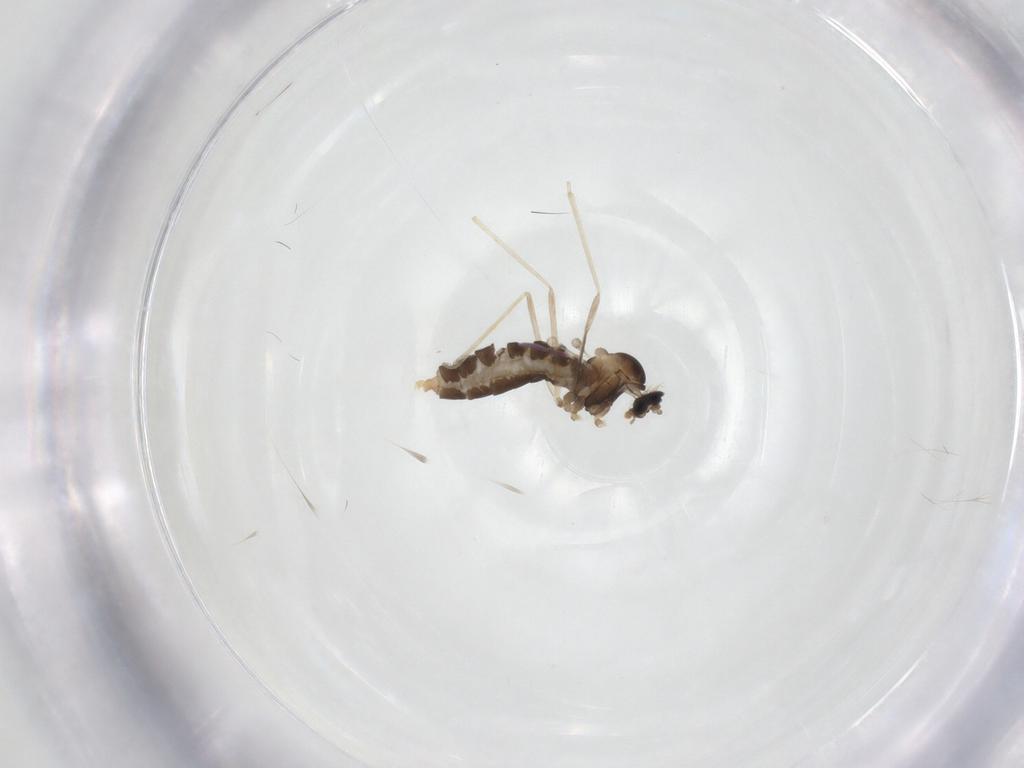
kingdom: Animalia
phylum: Arthropoda
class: Insecta
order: Diptera
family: Cecidomyiidae
